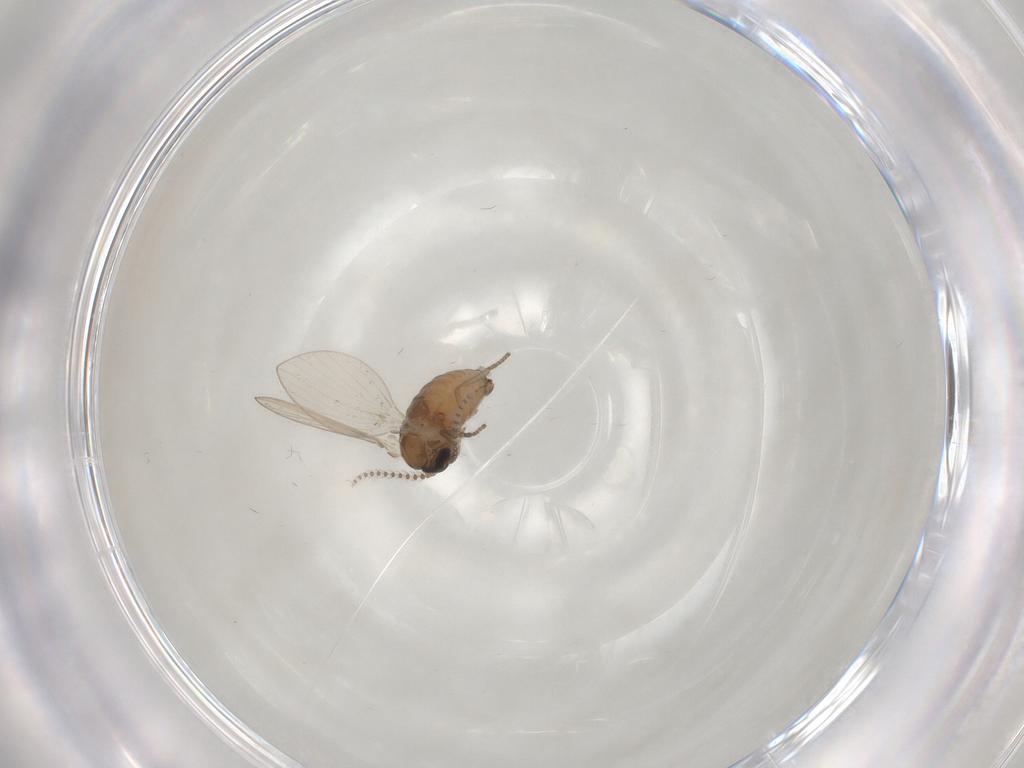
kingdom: Animalia
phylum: Arthropoda
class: Insecta
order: Diptera
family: Psychodidae
